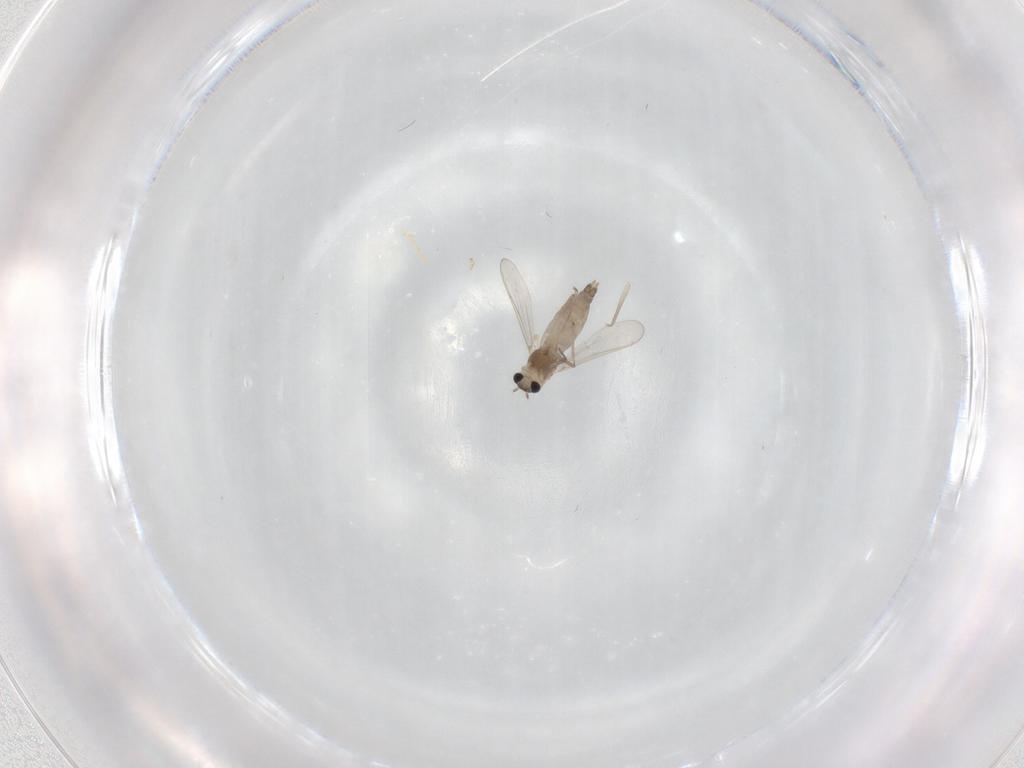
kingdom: Animalia
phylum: Arthropoda
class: Insecta
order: Diptera
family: Chironomidae
